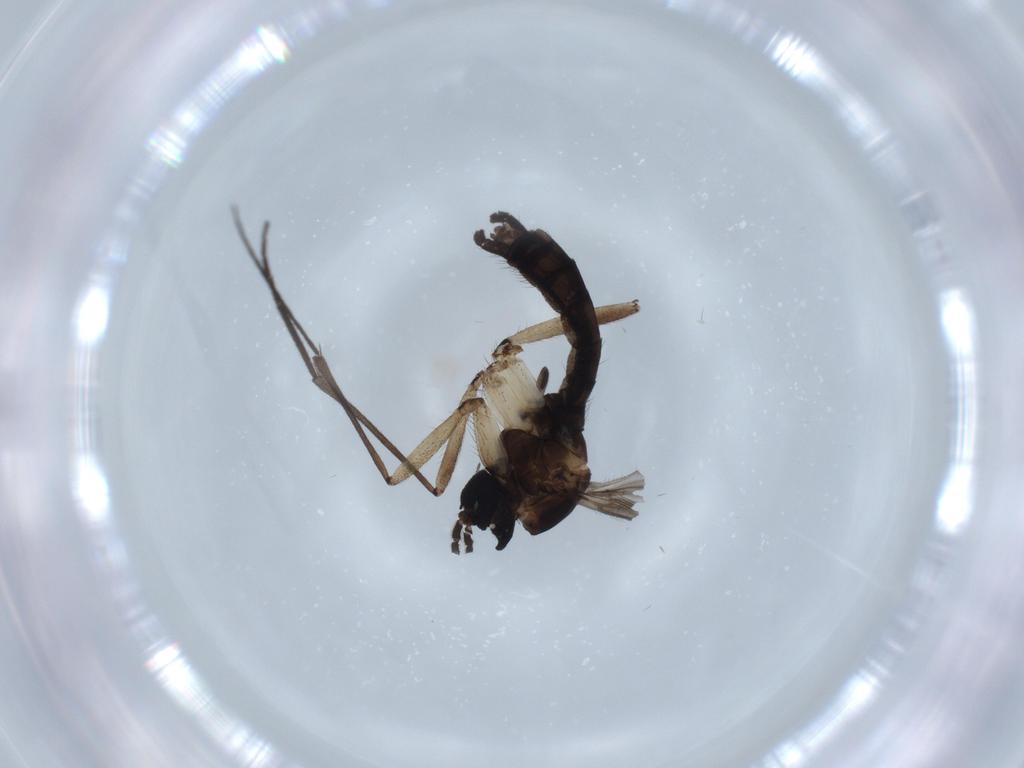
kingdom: Animalia
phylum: Arthropoda
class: Insecta
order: Diptera
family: Sciaridae
